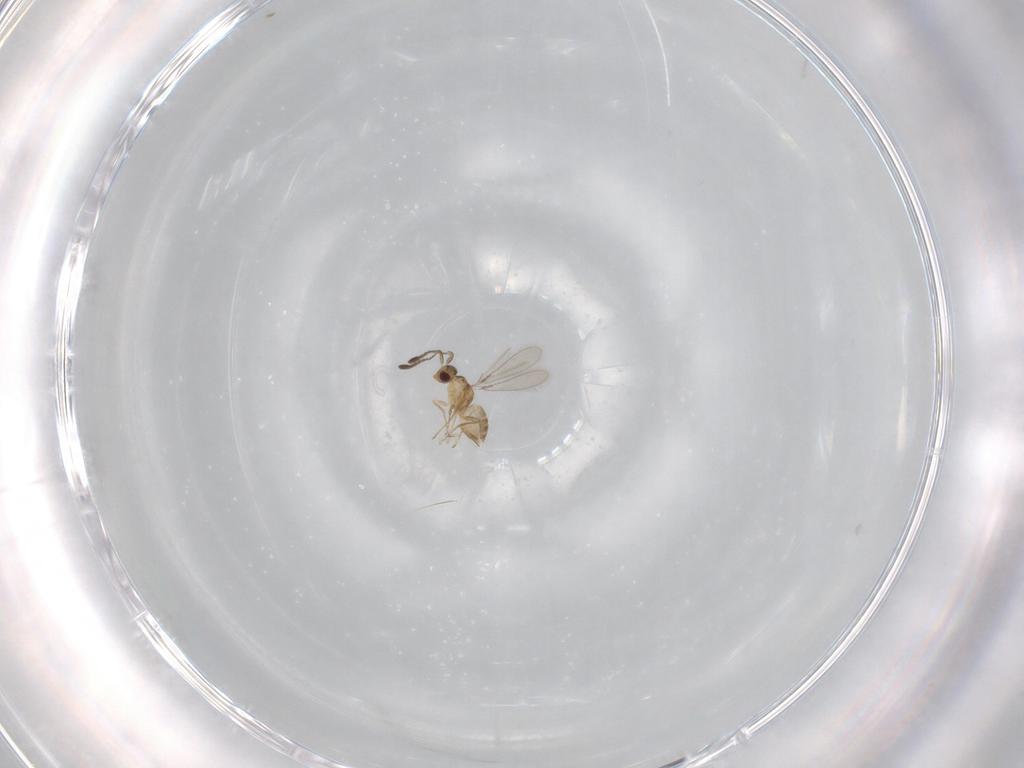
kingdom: Animalia
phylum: Arthropoda
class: Insecta
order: Hymenoptera
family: Mymaridae
